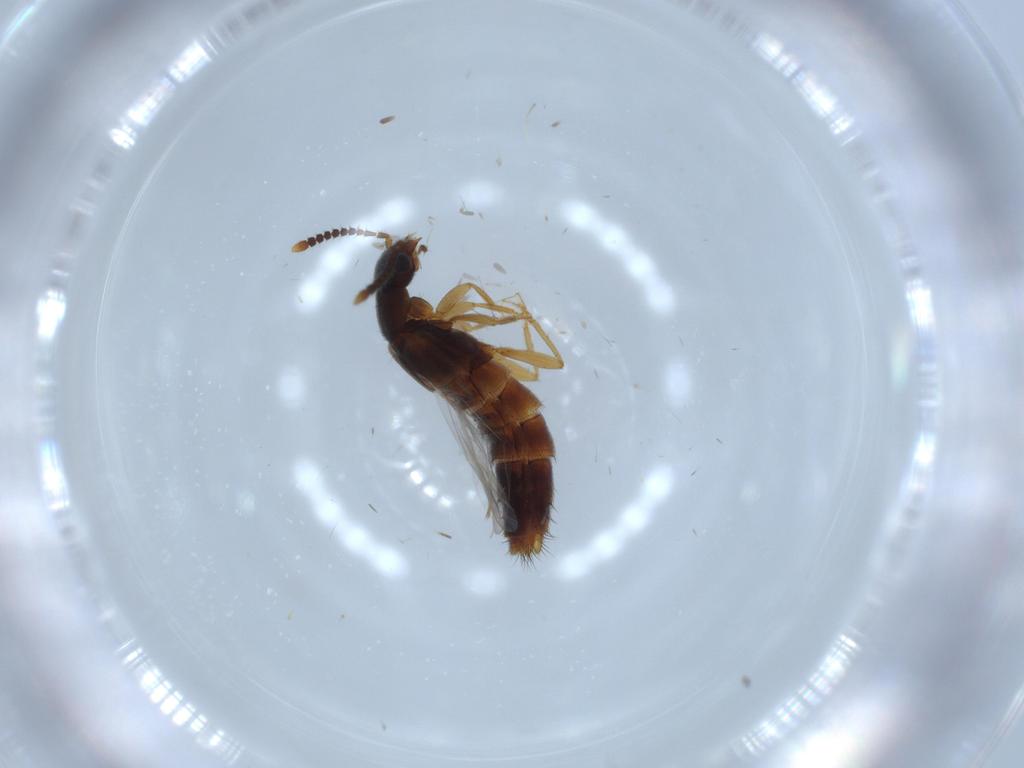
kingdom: Animalia
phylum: Arthropoda
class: Insecta
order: Coleoptera
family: Staphylinidae
